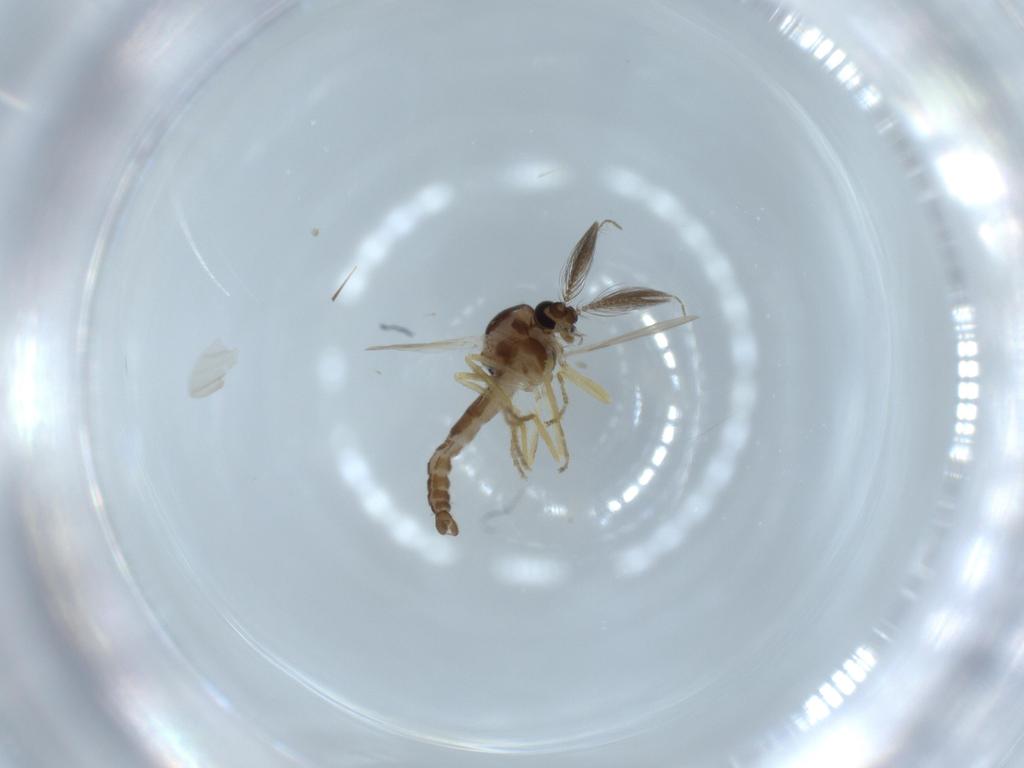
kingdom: Animalia
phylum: Arthropoda
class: Insecta
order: Diptera
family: Ceratopogonidae
